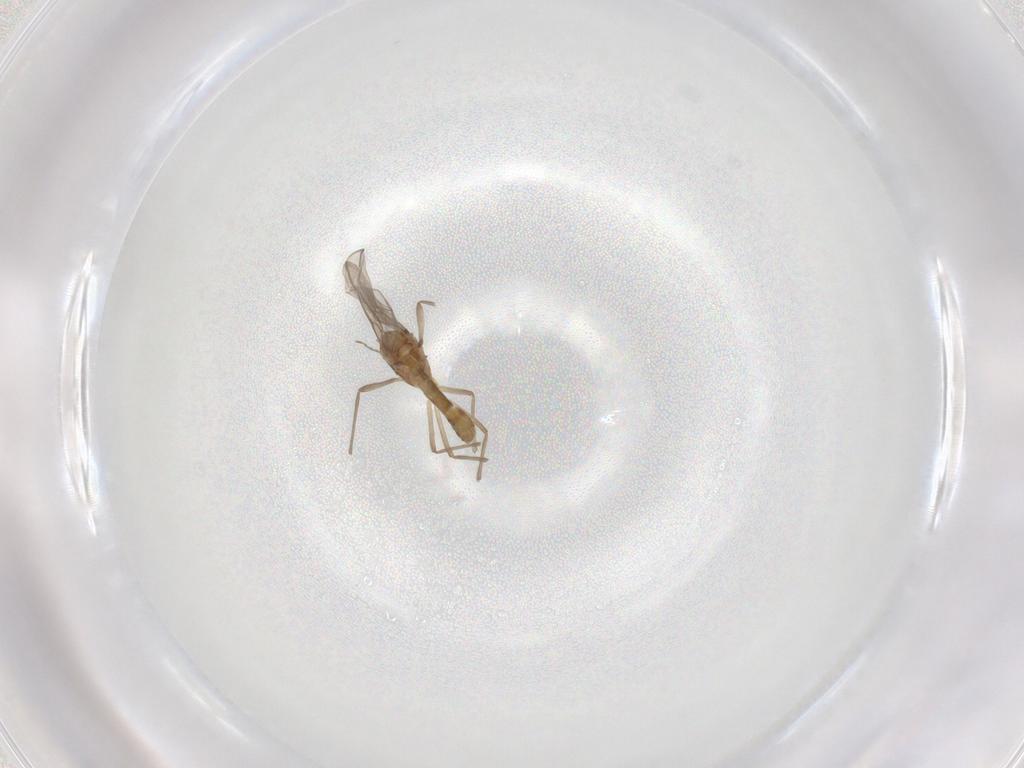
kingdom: Animalia
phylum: Arthropoda
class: Insecta
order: Diptera
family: Chironomidae
